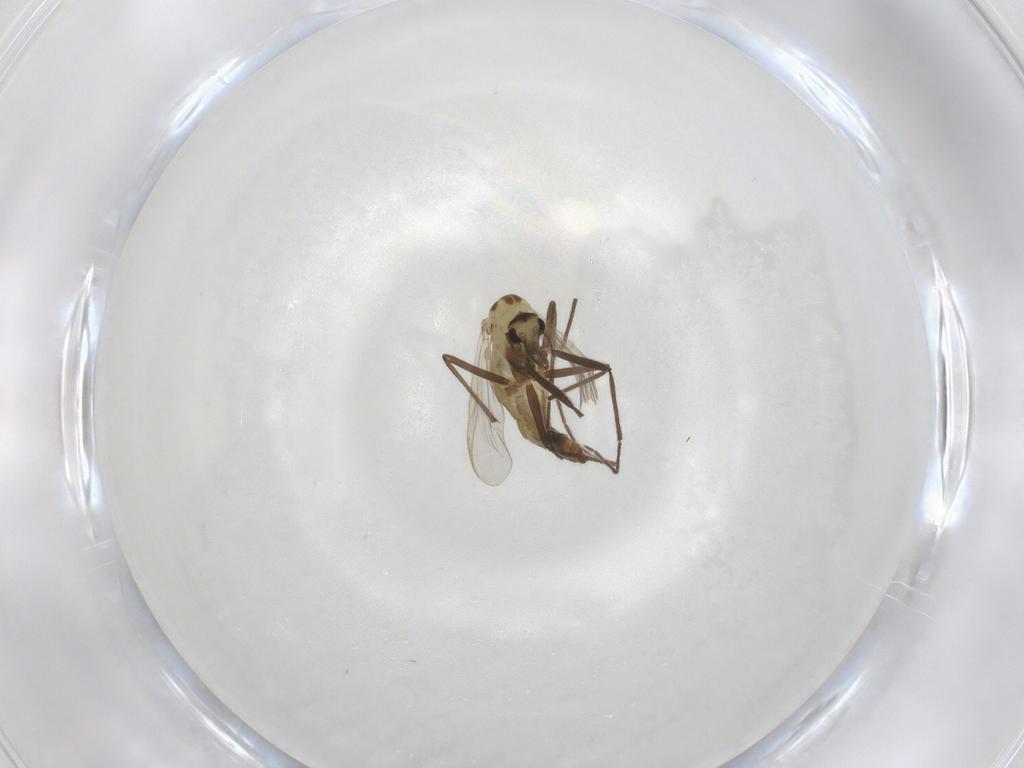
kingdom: Animalia
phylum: Arthropoda
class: Insecta
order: Diptera
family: Chironomidae
